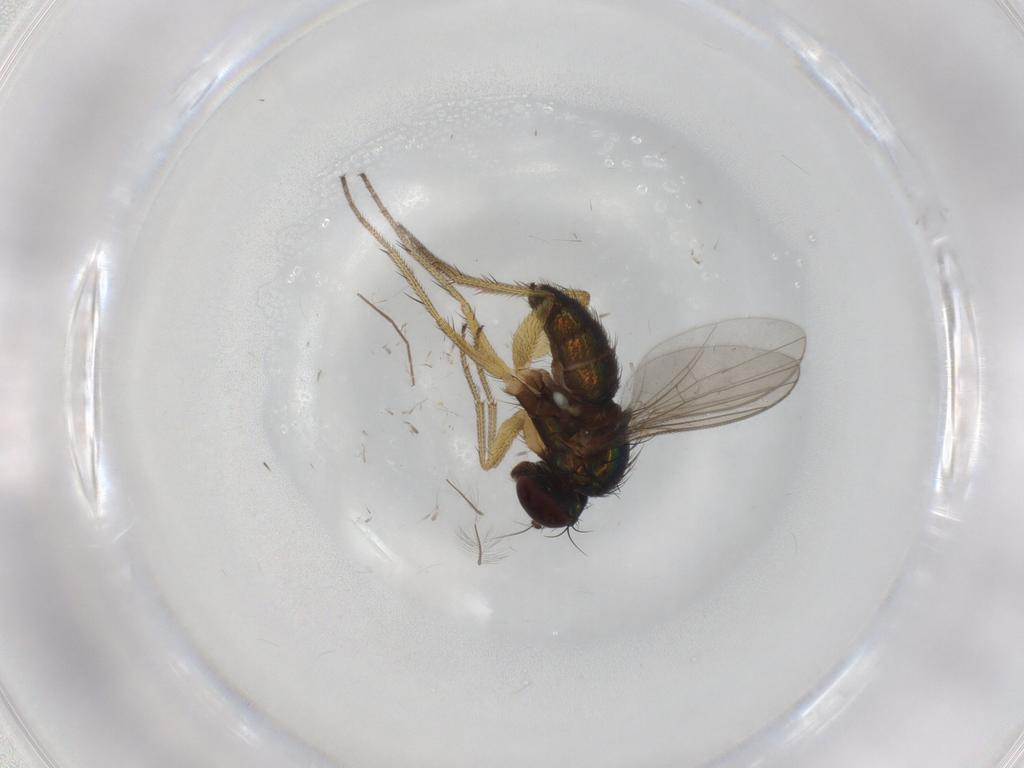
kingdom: Animalia
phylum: Arthropoda
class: Insecta
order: Diptera
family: Chironomidae
